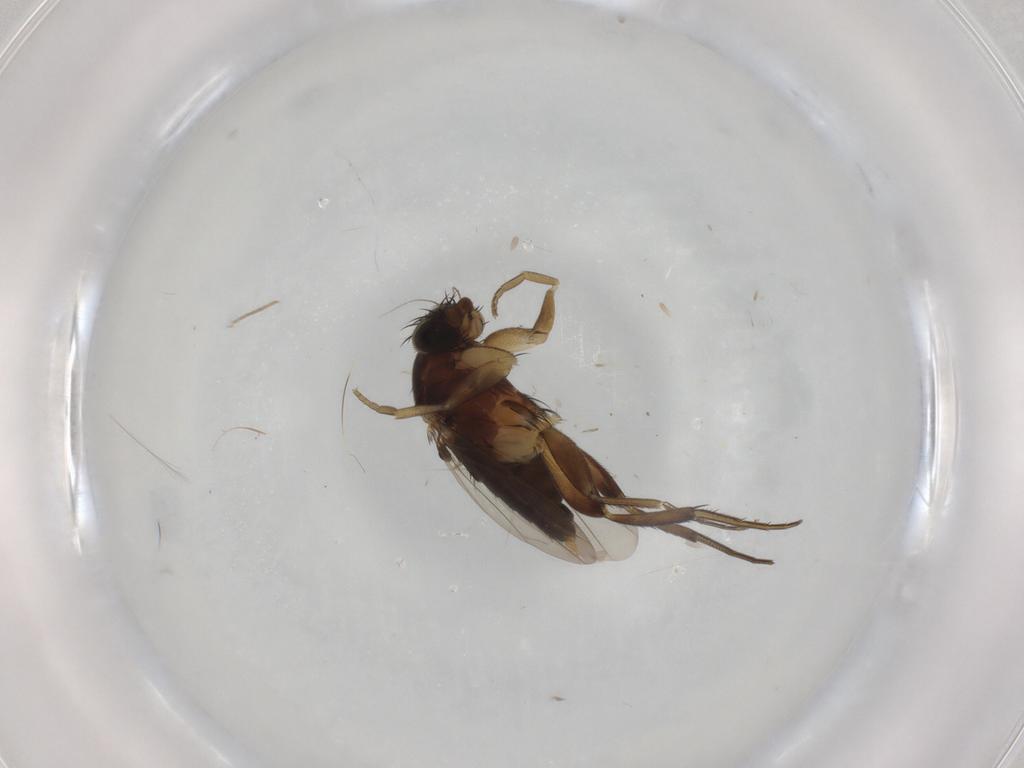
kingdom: Animalia
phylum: Arthropoda
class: Insecta
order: Diptera
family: Phoridae
